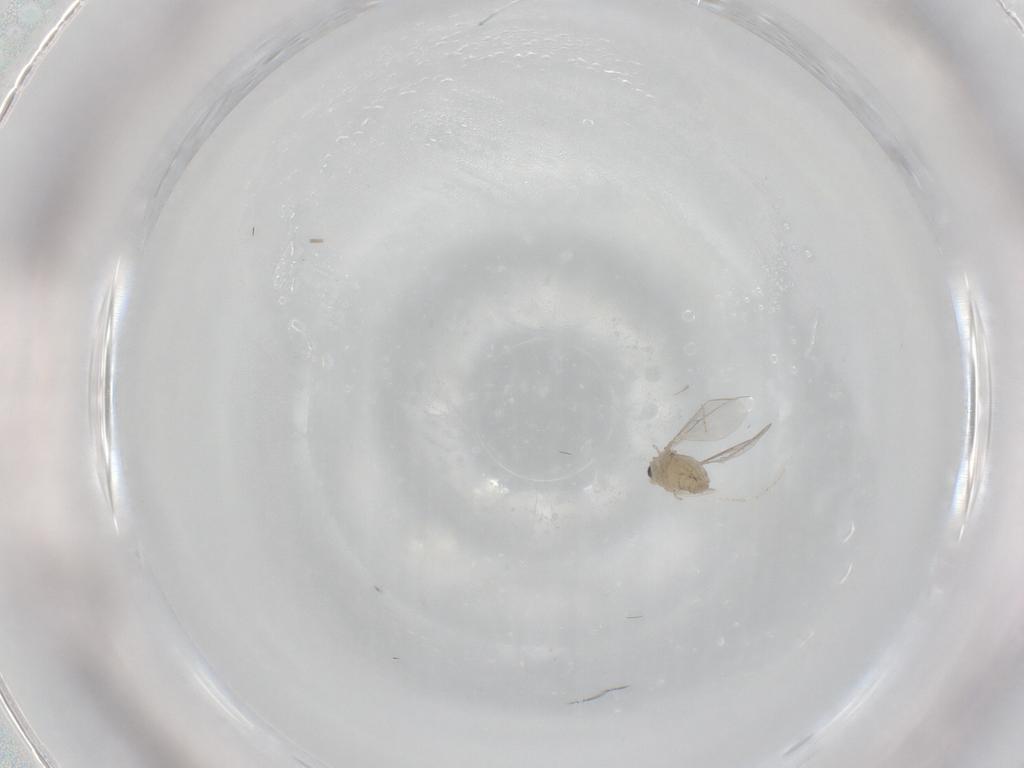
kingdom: Animalia
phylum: Arthropoda
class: Insecta
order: Diptera
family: Cecidomyiidae
